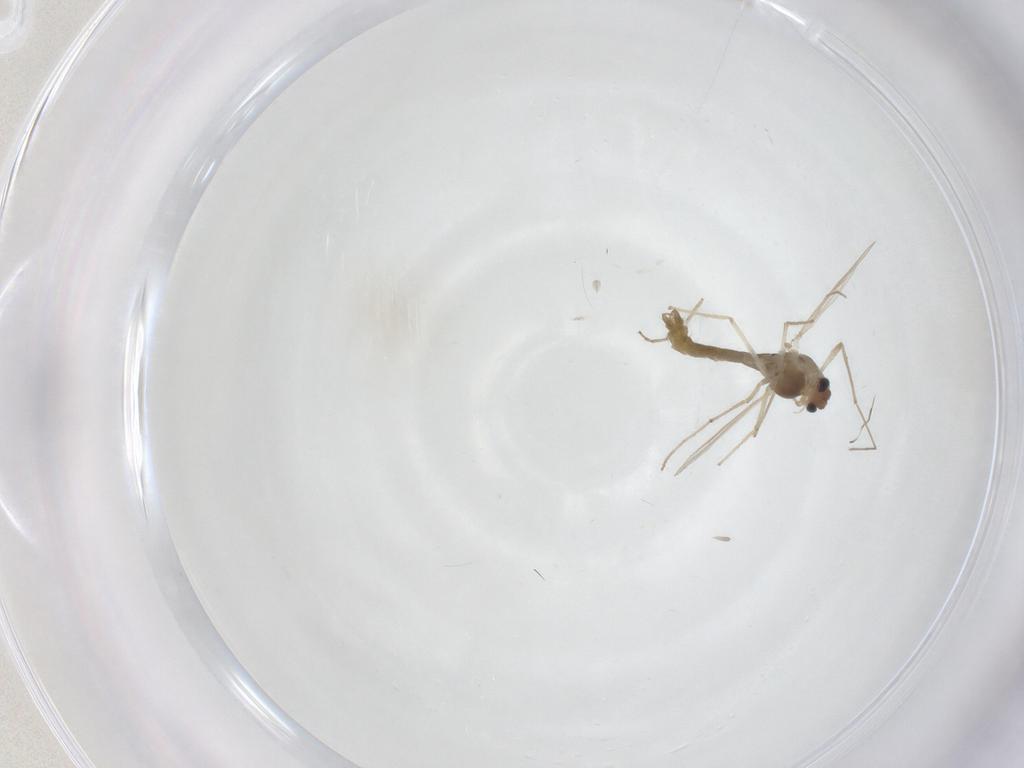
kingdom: Animalia
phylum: Arthropoda
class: Insecta
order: Diptera
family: Chironomidae
